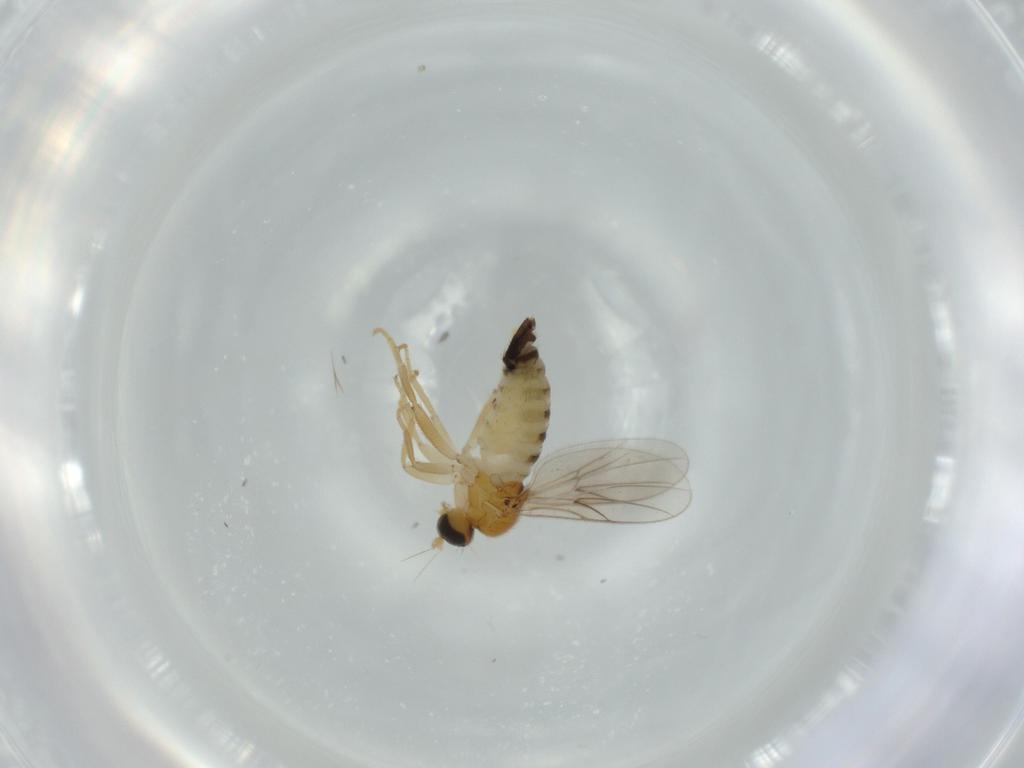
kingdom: Animalia
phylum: Arthropoda
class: Insecta
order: Diptera
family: Hybotidae
